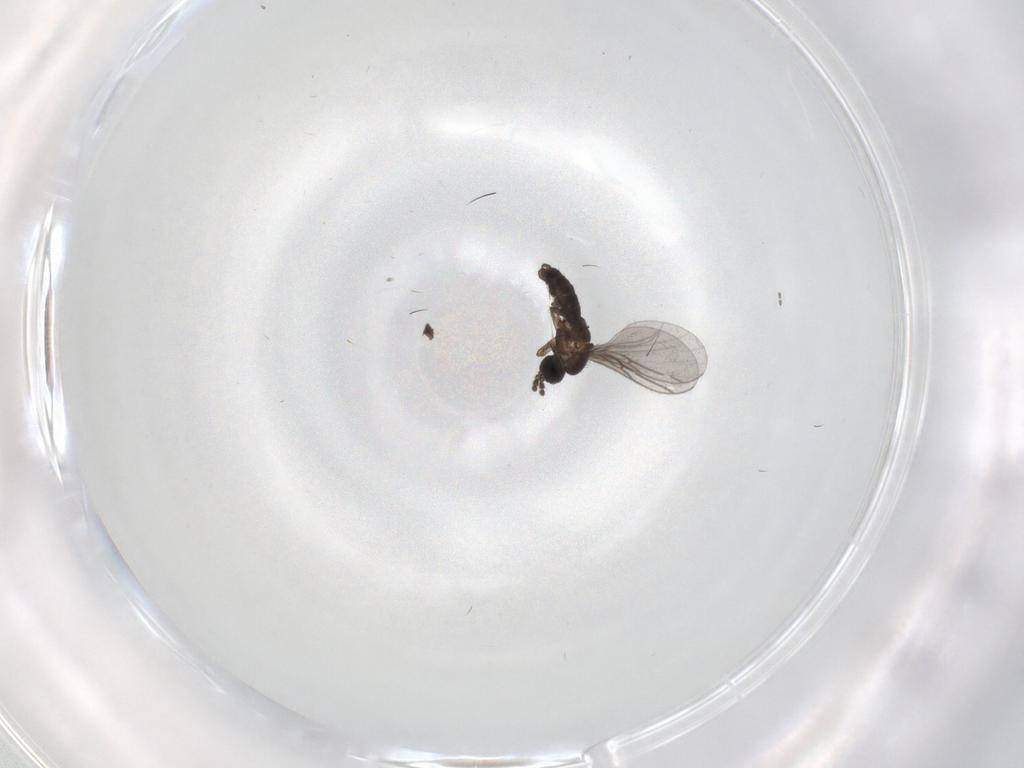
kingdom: Animalia
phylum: Arthropoda
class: Insecta
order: Diptera
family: Sciaridae
